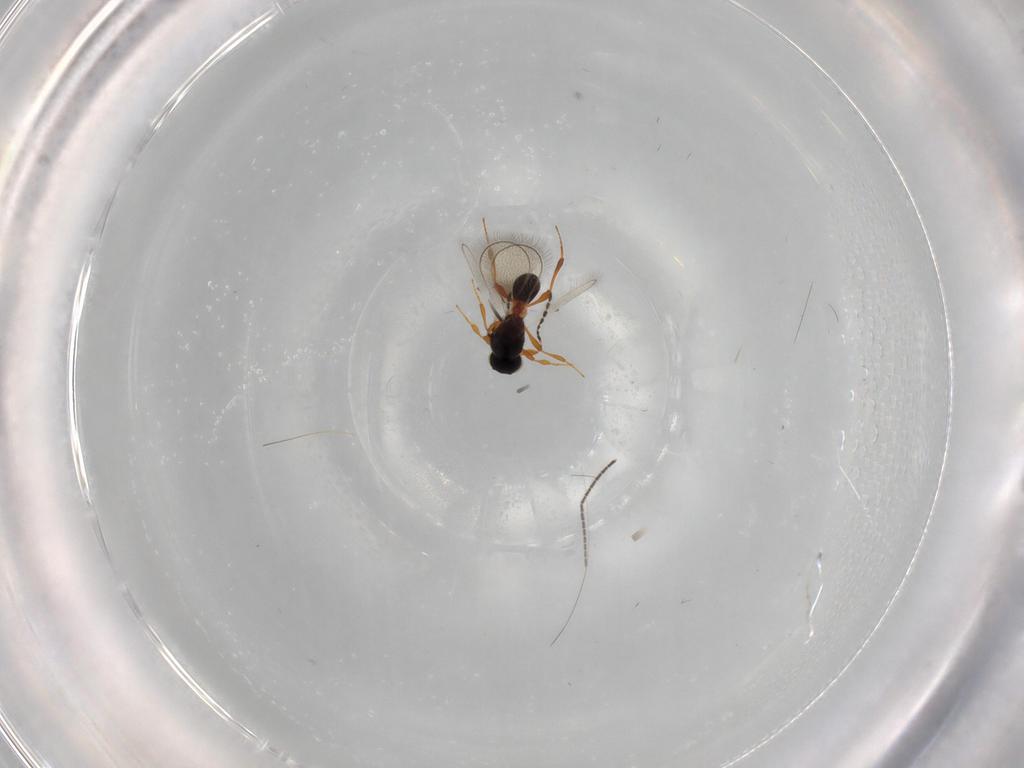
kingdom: Animalia
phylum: Arthropoda
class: Insecta
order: Hymenoptera
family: Platygastridae
